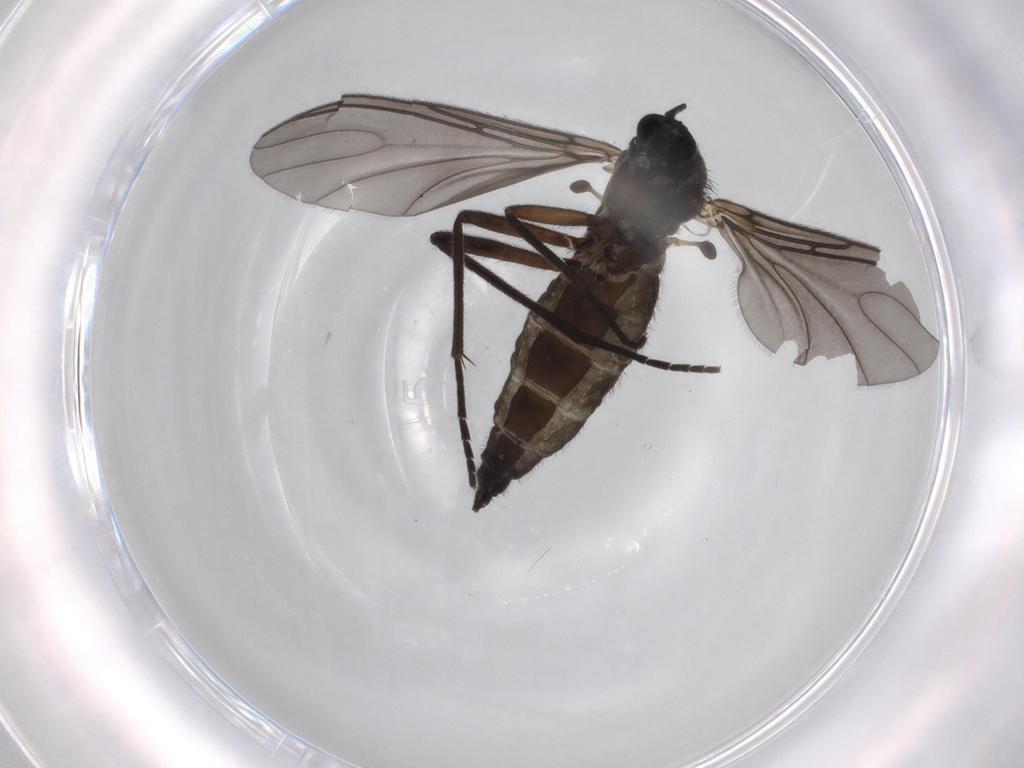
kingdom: Animalia
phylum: Arthropoda
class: Insecta
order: Diptera
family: Sciaridae
